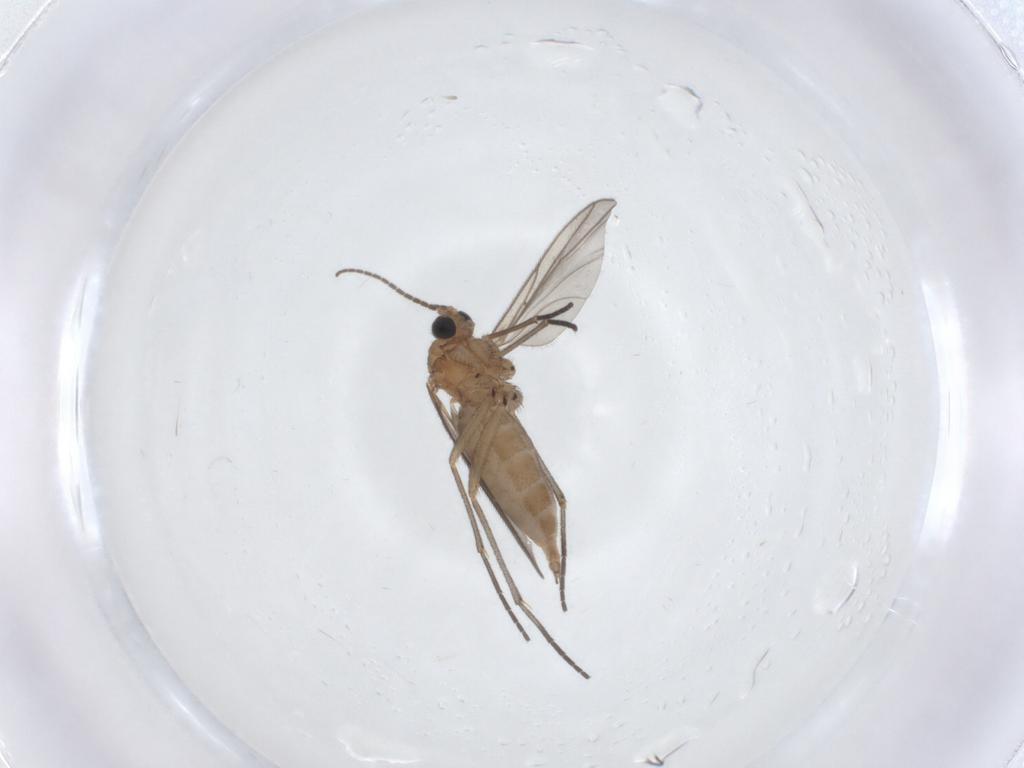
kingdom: Animalia
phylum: Arthropoda
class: Insecta
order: Diptera
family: Sciaridae
